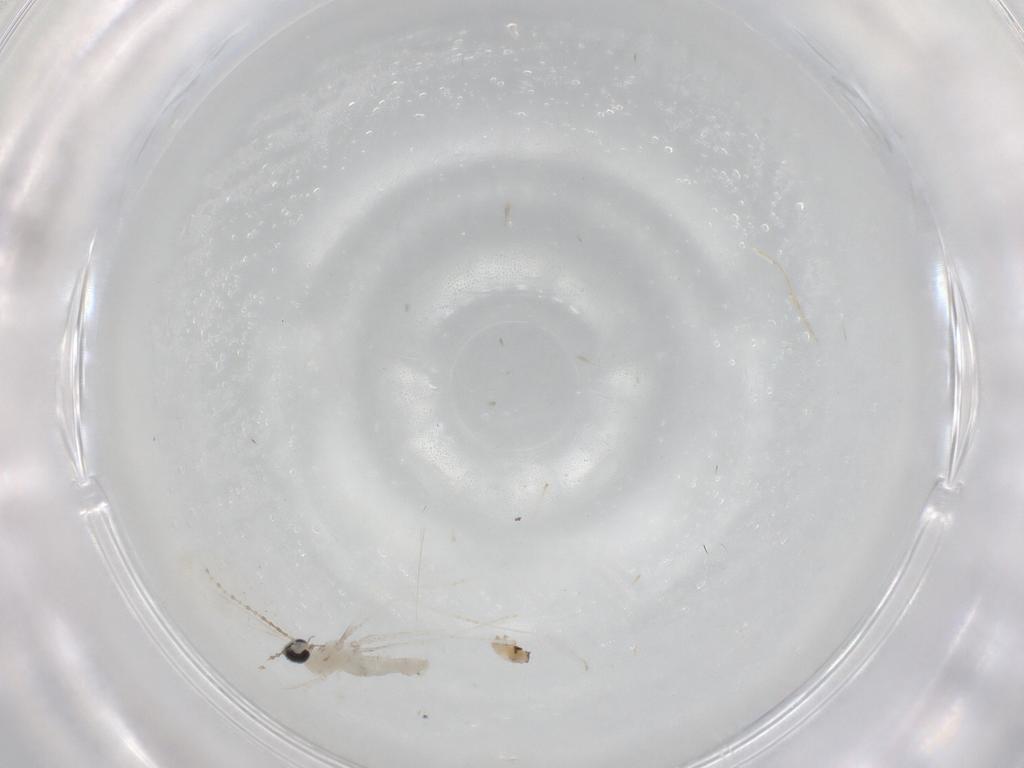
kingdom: Animalia
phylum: Arthropoda
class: Insecta
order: Diptera
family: Cecidomyiidae
